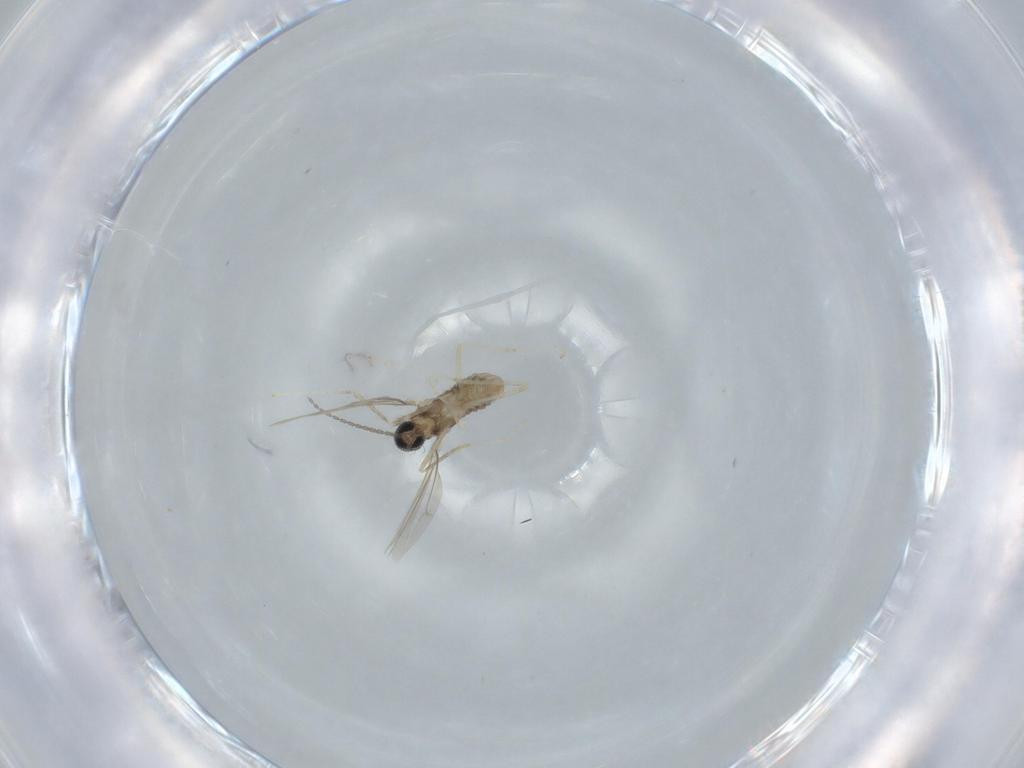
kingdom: Animalia
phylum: Arthropoda
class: Insecta
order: Diptera
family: Cecidomyiidae
